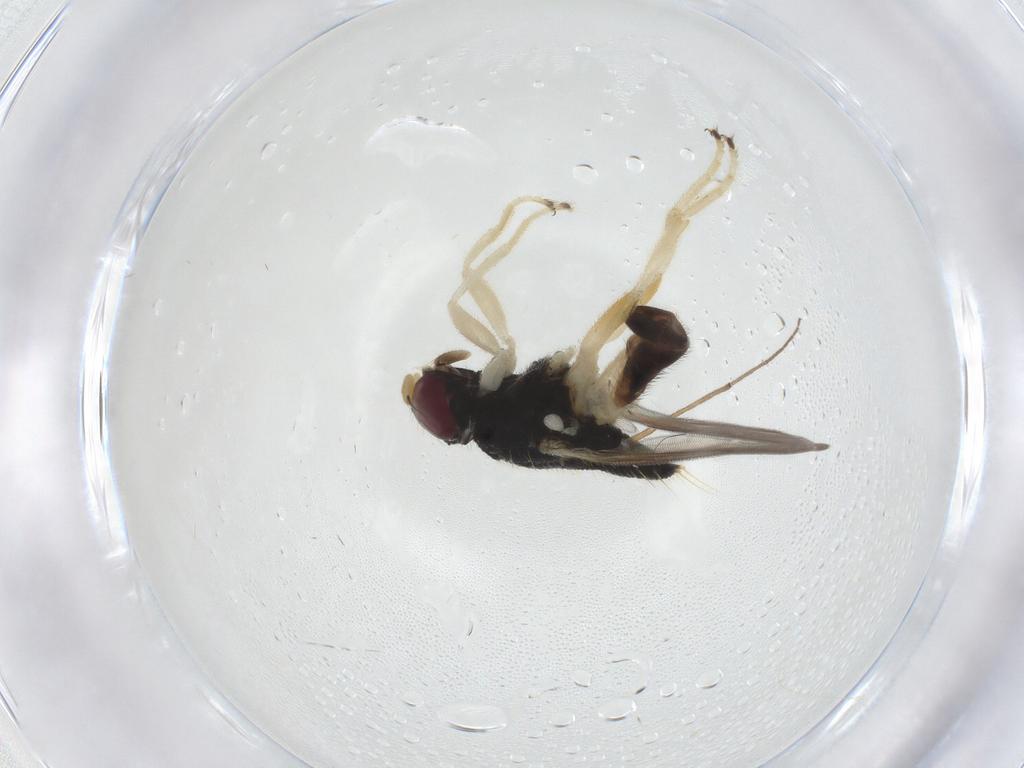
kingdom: Animalia
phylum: Arthropoda
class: Insecta
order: Diptera
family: Chloropidae
